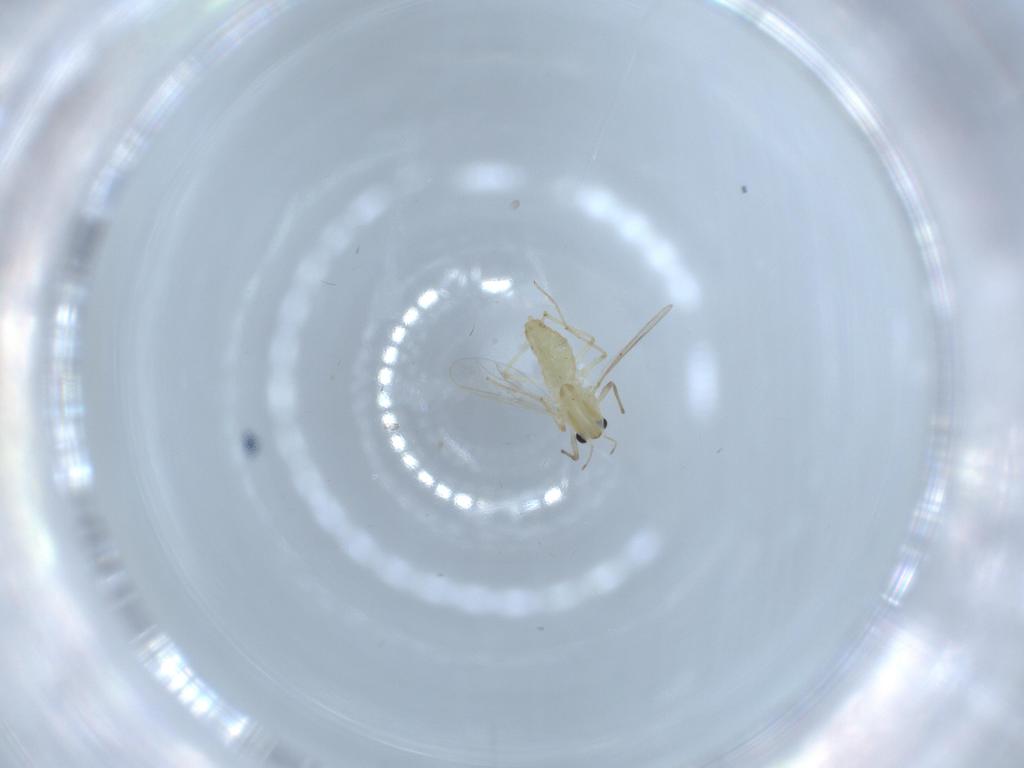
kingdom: Animalia
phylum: Arthropoda
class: Insecta
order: Diptera
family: Chironomidae
